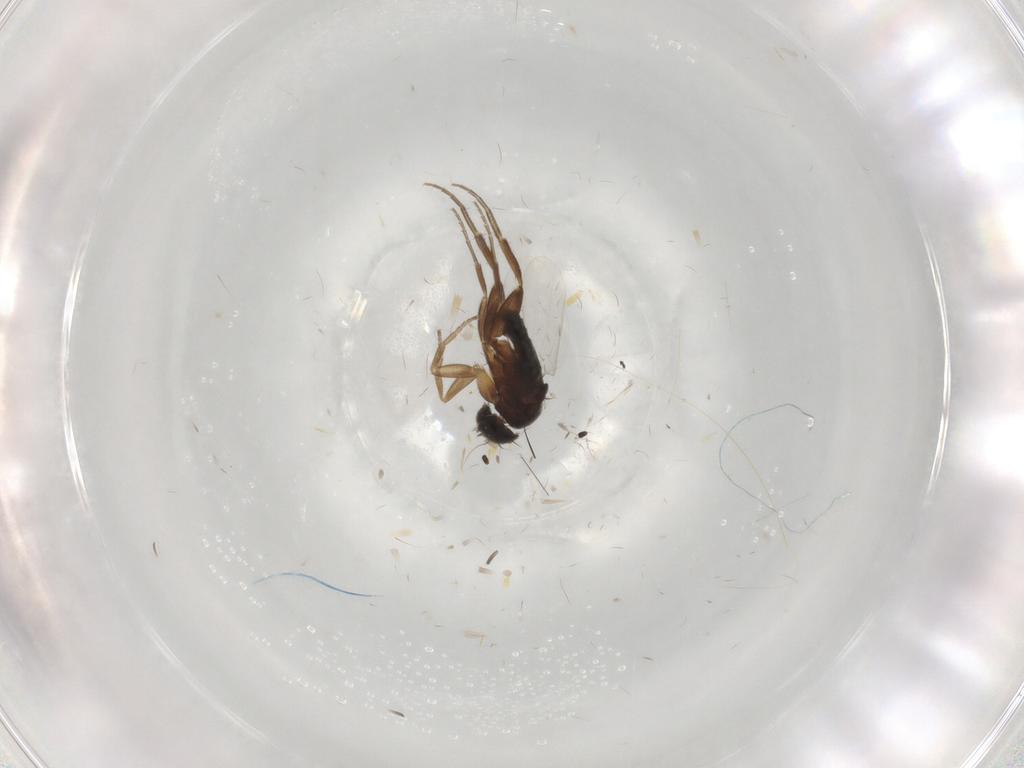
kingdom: Animalia
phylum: Arthropoda
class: Insecta
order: Diptera
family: Phoridae
